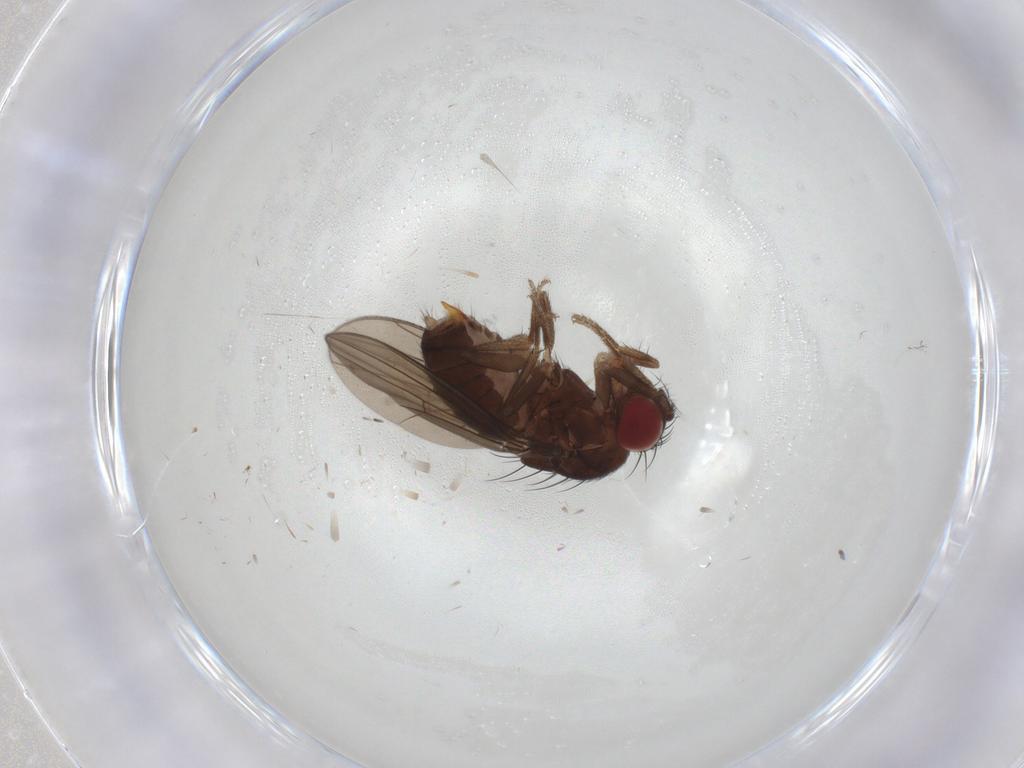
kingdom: Animalia
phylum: Arthropoda
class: Insecta
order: Diptera
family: Drosophilidae
